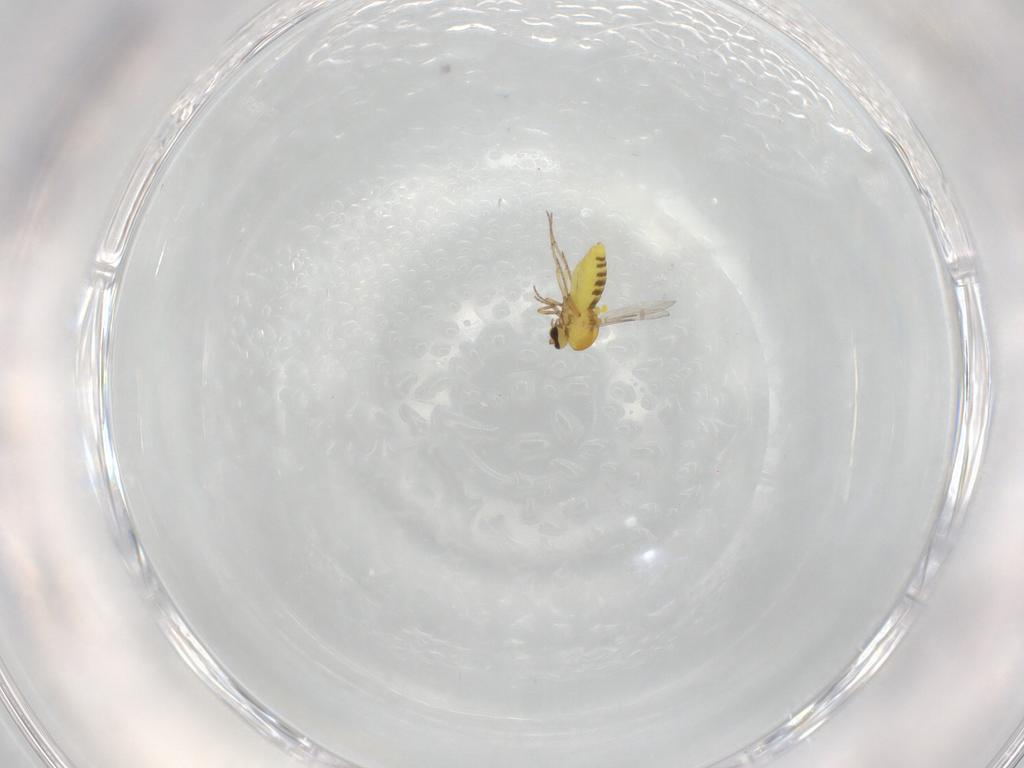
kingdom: Animalia
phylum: Arthropoda
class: Insecta
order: Diptera
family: Ceratopogonidae
